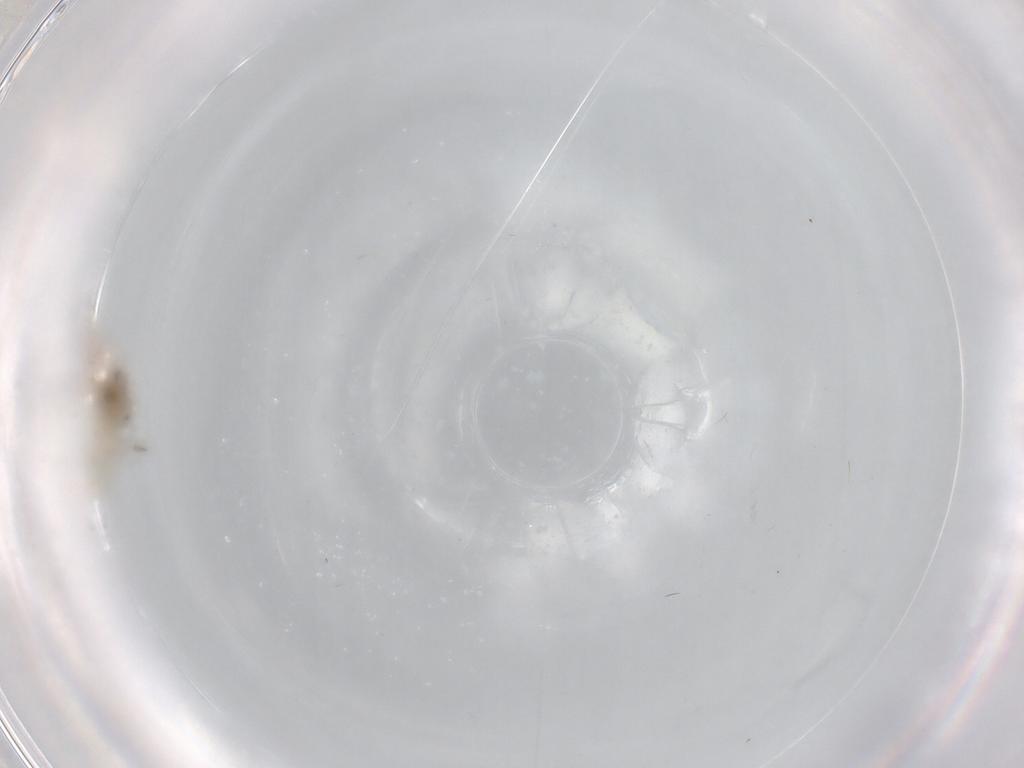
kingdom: Animalia
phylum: Arthropoda
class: Insecta
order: Diptera
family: Chironomidae
